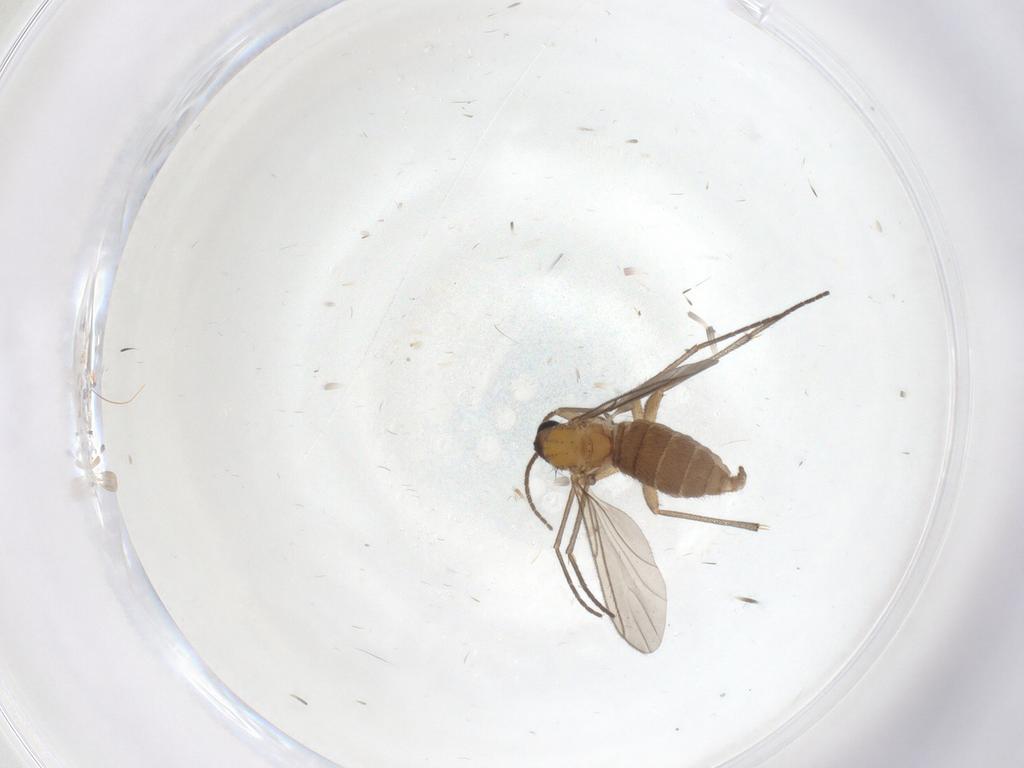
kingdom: Animalia
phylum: Arthropoda
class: Insecta
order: Diptera
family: Sciaridae
